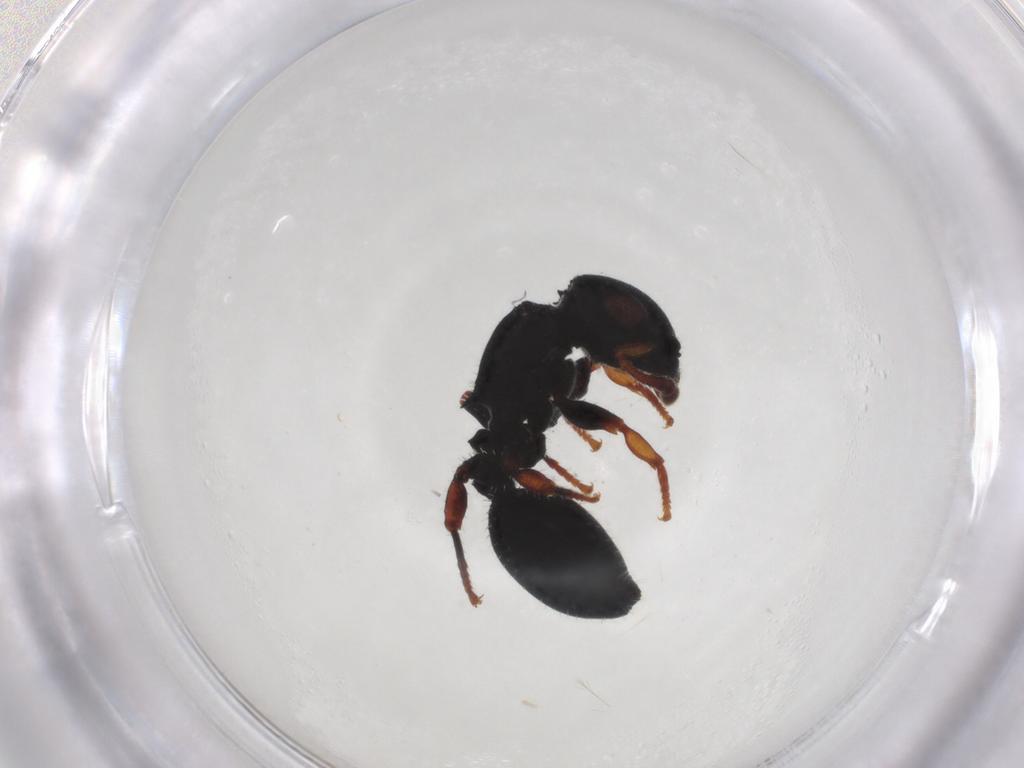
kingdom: Animalia
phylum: Arthropoda
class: Insecta
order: Hymenoptera
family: Formicidae
